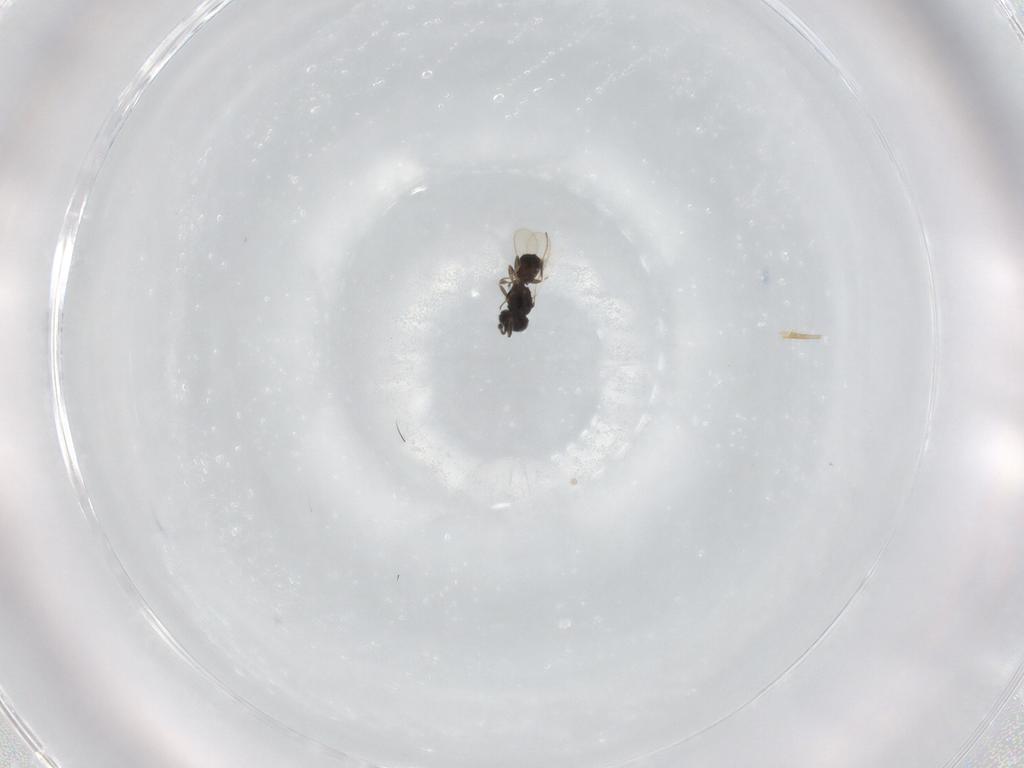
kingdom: Animalia
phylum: Arthropoda
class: Insecta
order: Hymenoptera
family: Scelionidae
